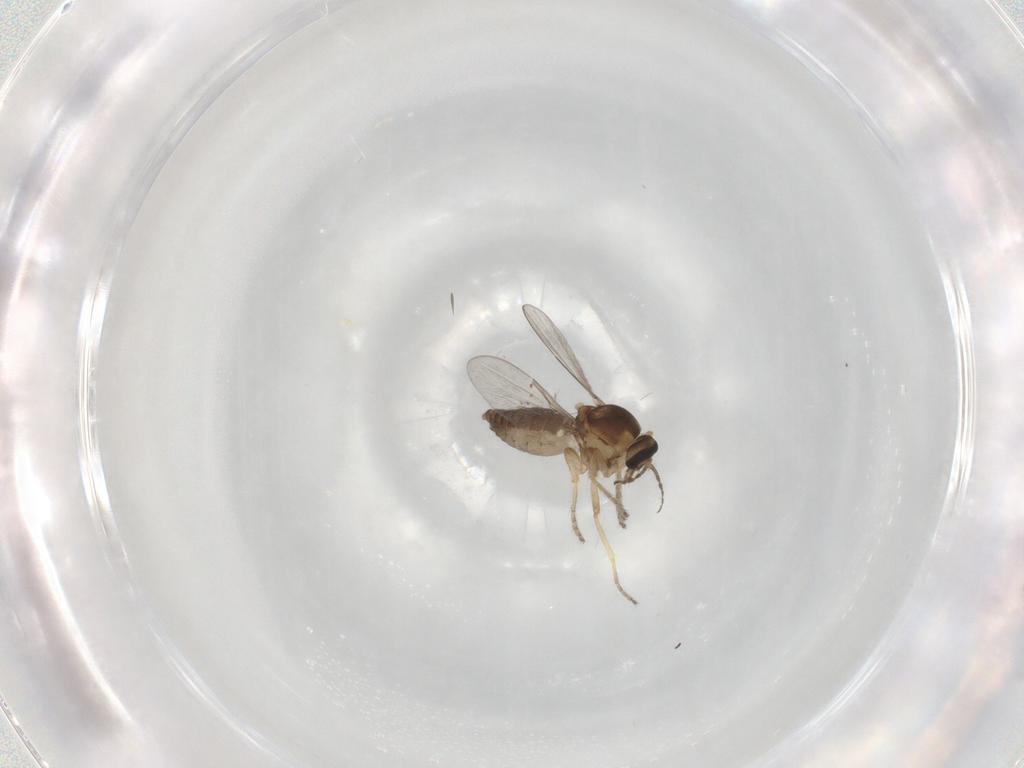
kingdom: Animalia
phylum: Arthropoda
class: Insecta
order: Diptera
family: Ceratopogonidae
